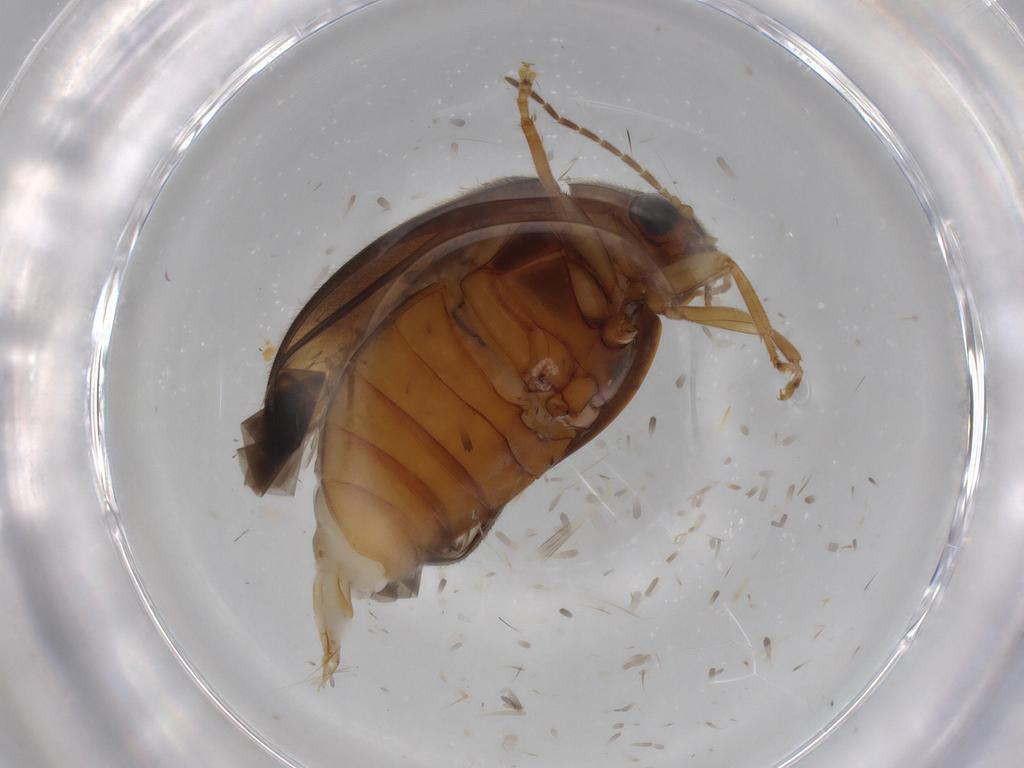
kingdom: Animalia
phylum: Arthropoda
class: Insecta
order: Coleoptera
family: Scirtidae
